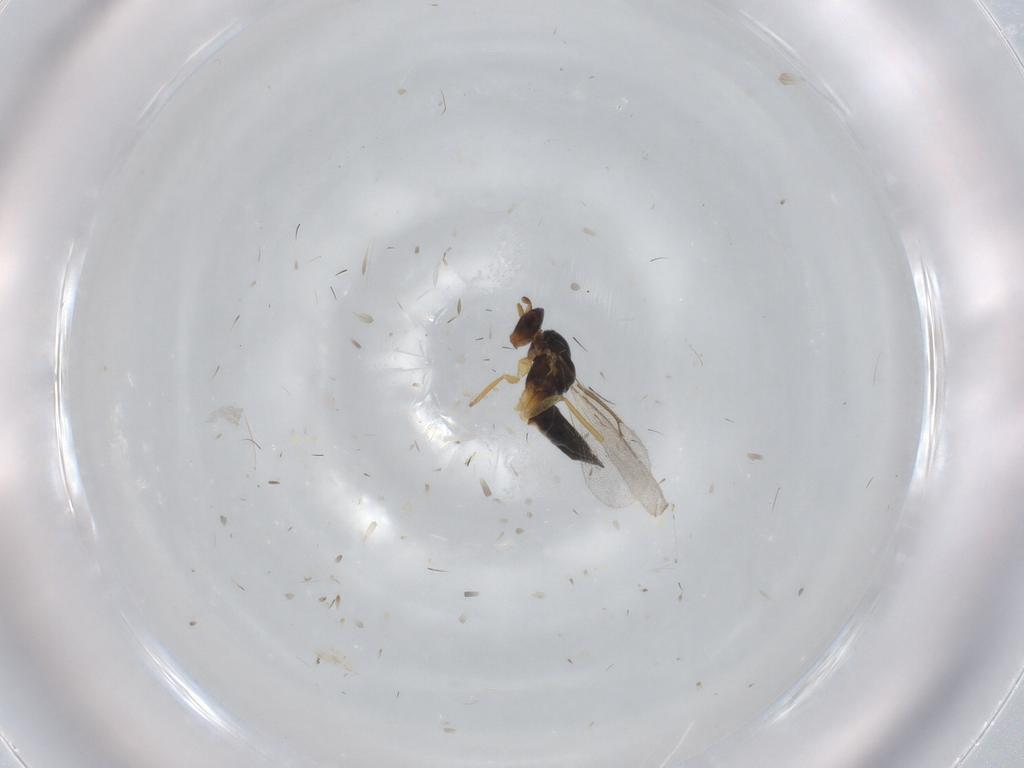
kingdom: Animalia
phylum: Arthropoda
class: Insecta
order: Hymenoptera
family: Eulophidae
